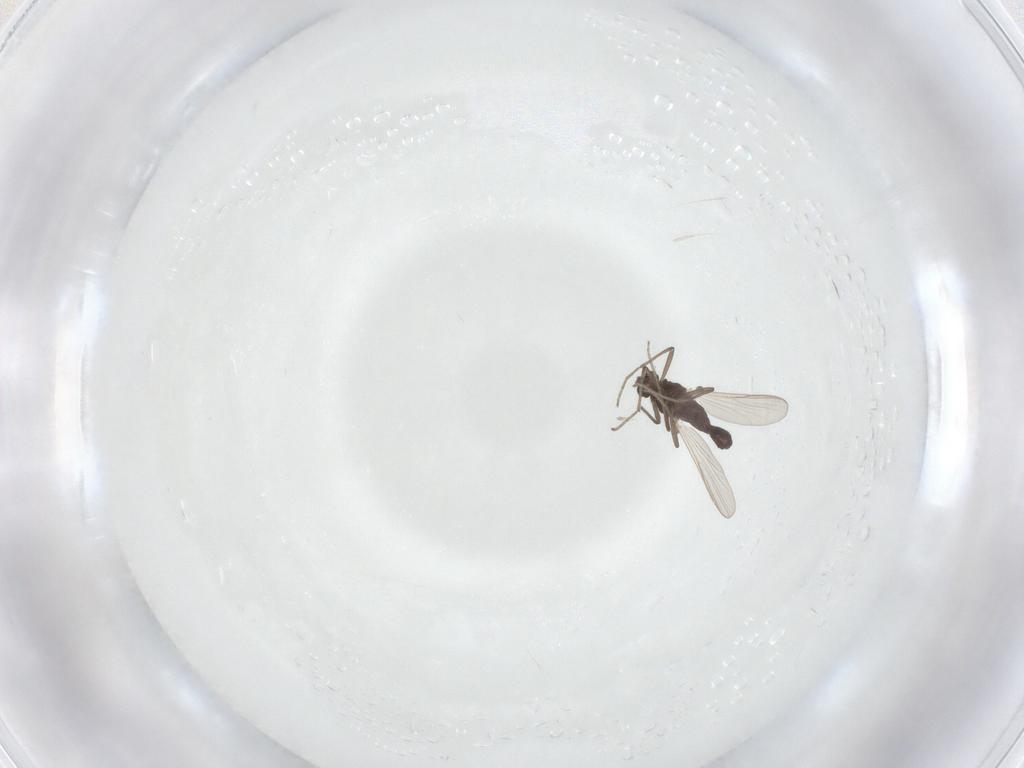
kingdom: Animalia
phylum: Arthropoda
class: Insecta
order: Diptera
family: Chironomidae
